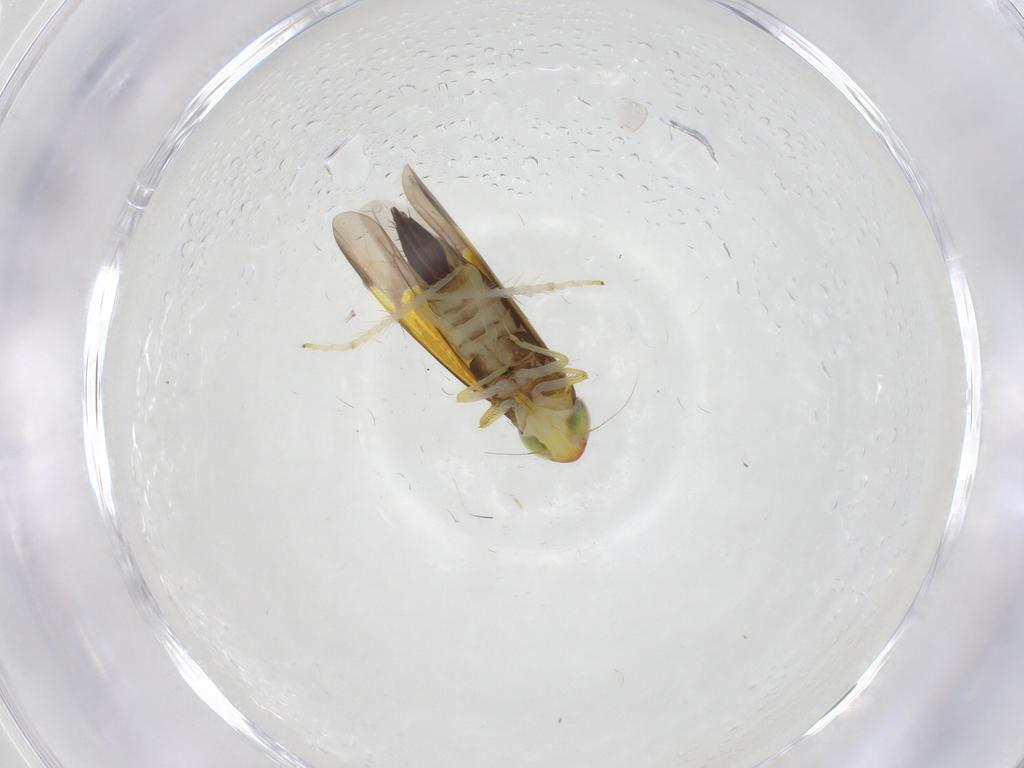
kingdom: Animalia
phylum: Arthropoda
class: Insecta
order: Hemiptera
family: Cicadellidae
